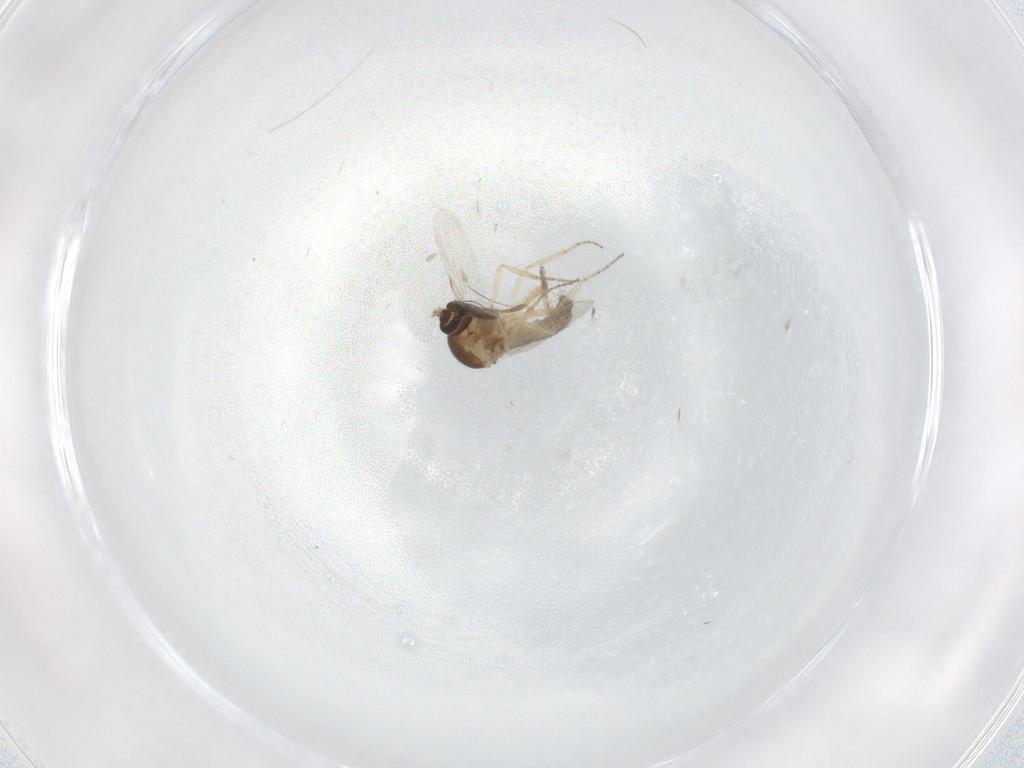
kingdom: Animalia
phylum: Arthropoda
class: Insecta
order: Diptera
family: Ceratopogonidae
